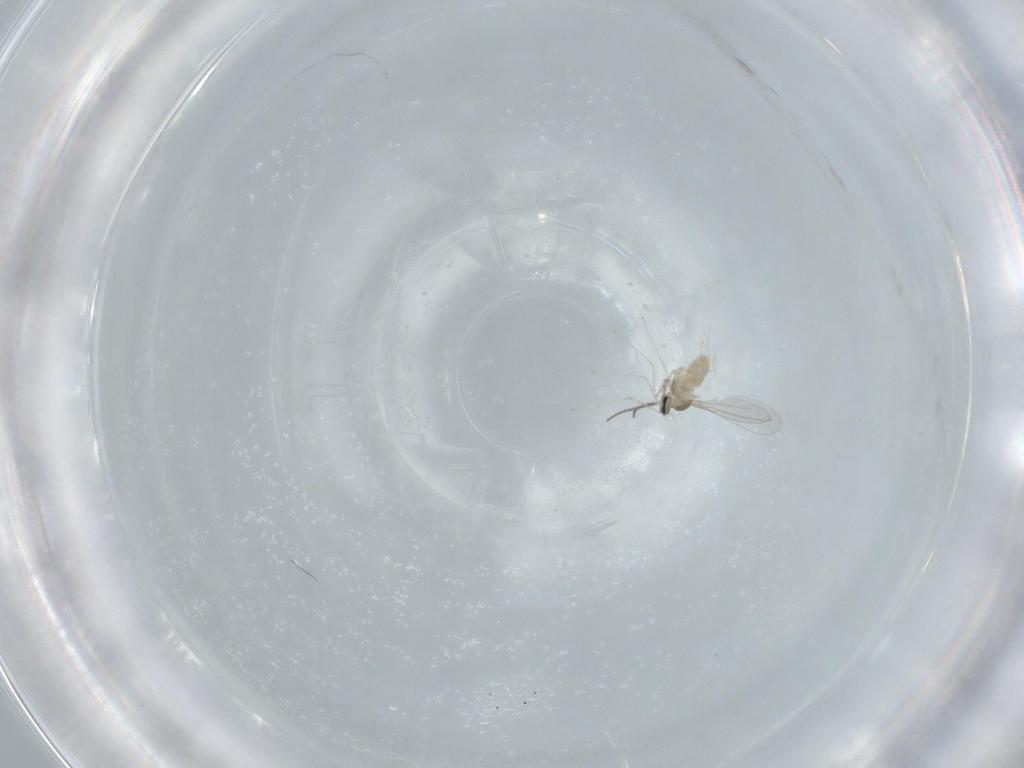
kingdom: Animalia
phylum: Arthropoda
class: Insecta
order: Diptera
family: Cecidomyiidae
